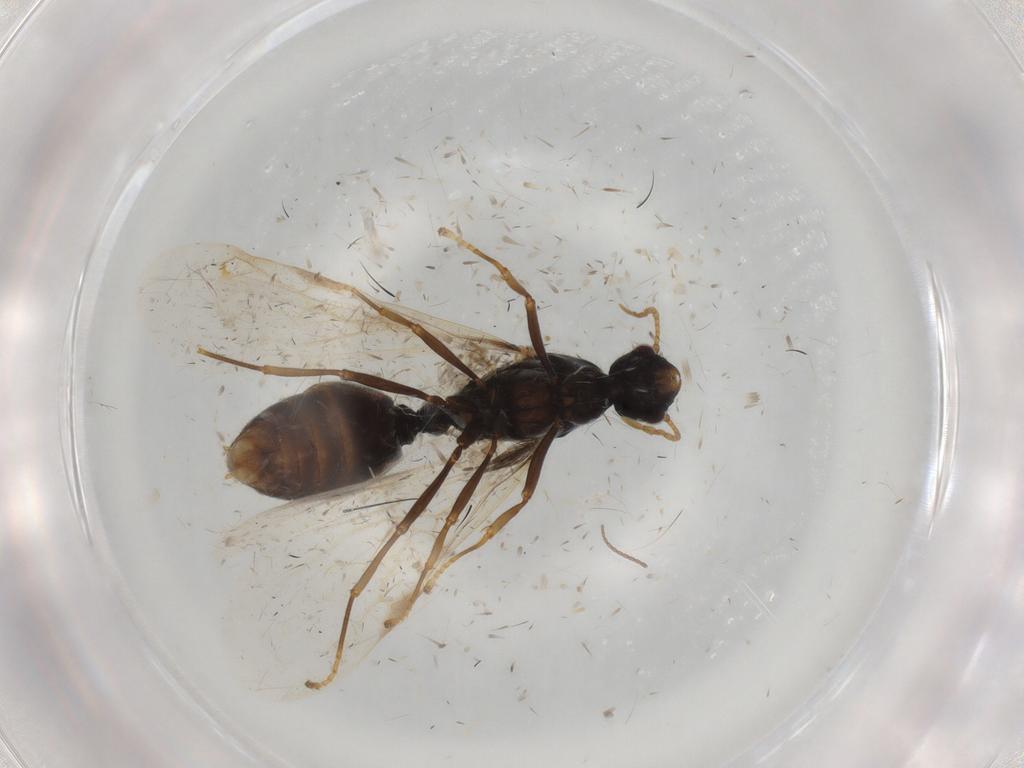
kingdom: Animalia
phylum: Arthropoda
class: Insecta
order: Hymenoptera
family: Formicidae
